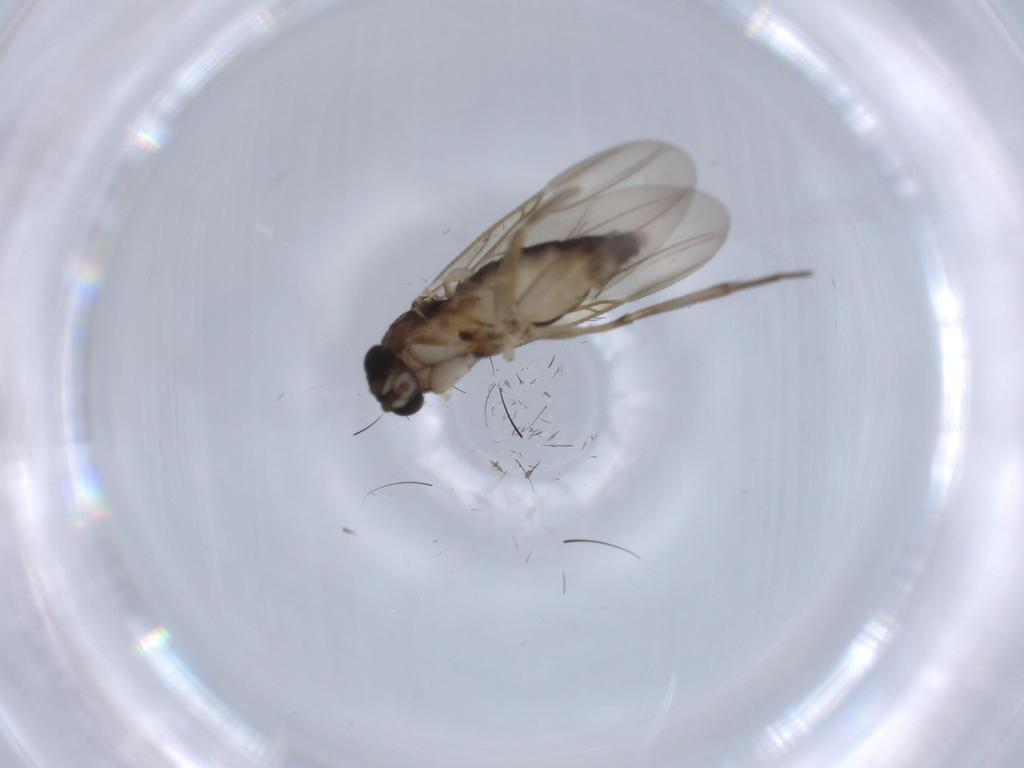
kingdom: Animalia
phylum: Arthropoda
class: Insecta
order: Diptera
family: Phoridae
